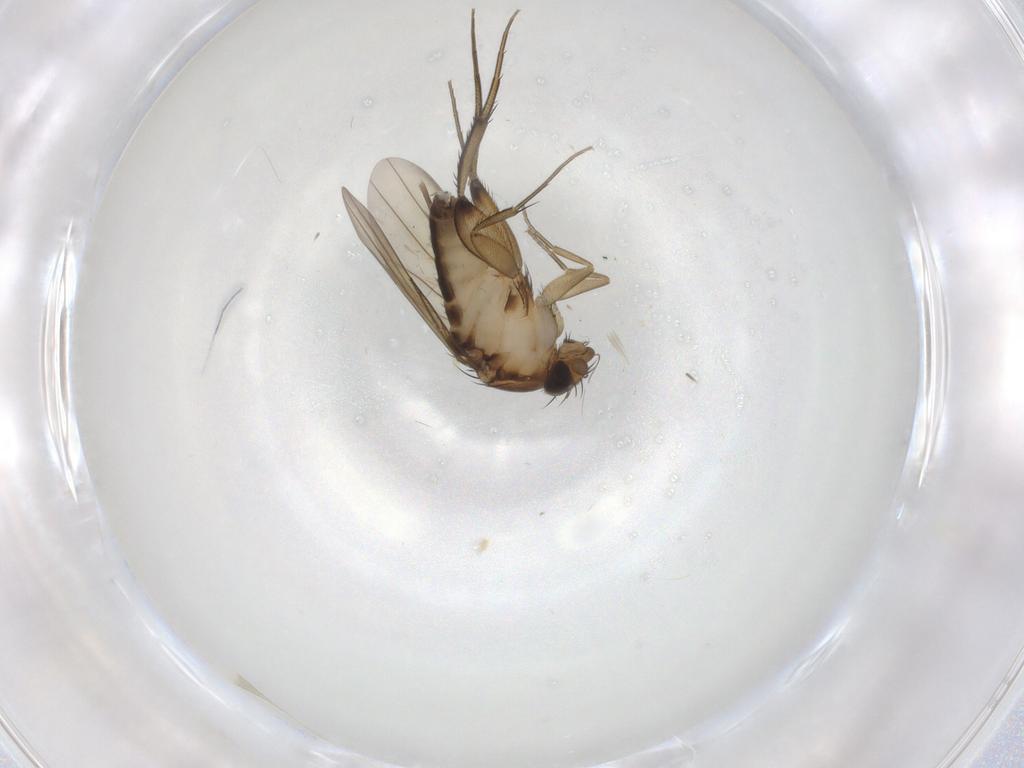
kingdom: Animalia
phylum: Arthropoda
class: Insecta
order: Diptera
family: Phoridae
